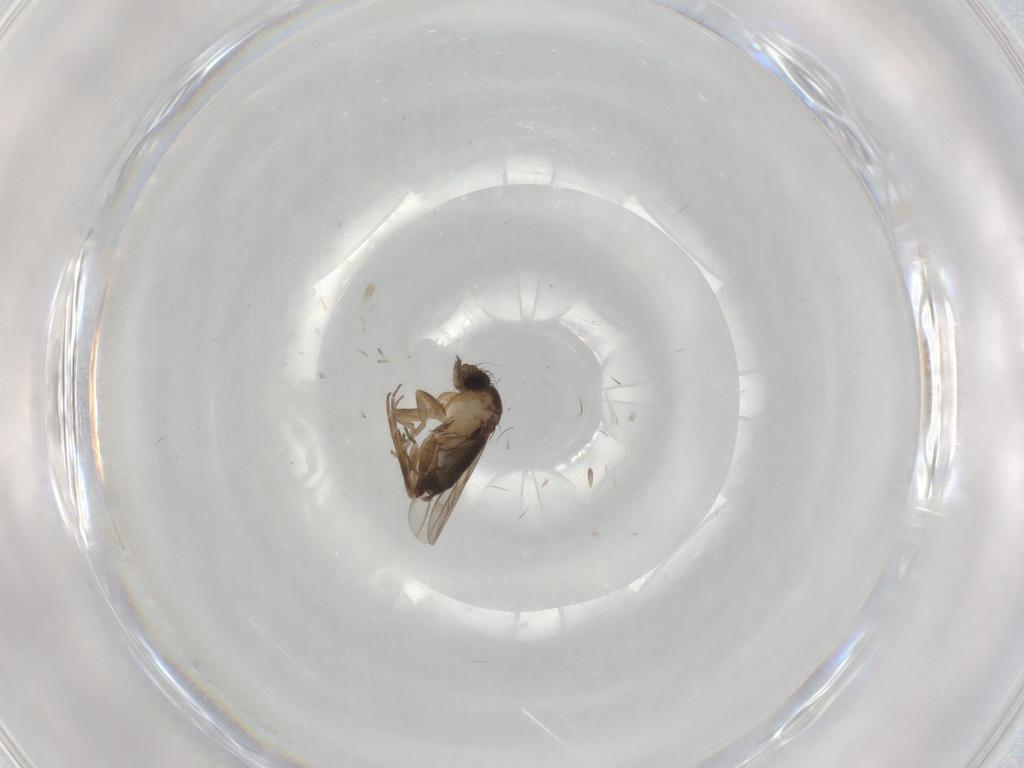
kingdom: Animalia
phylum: Arthropoda
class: Insecta
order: Diptera
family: Phoridae
